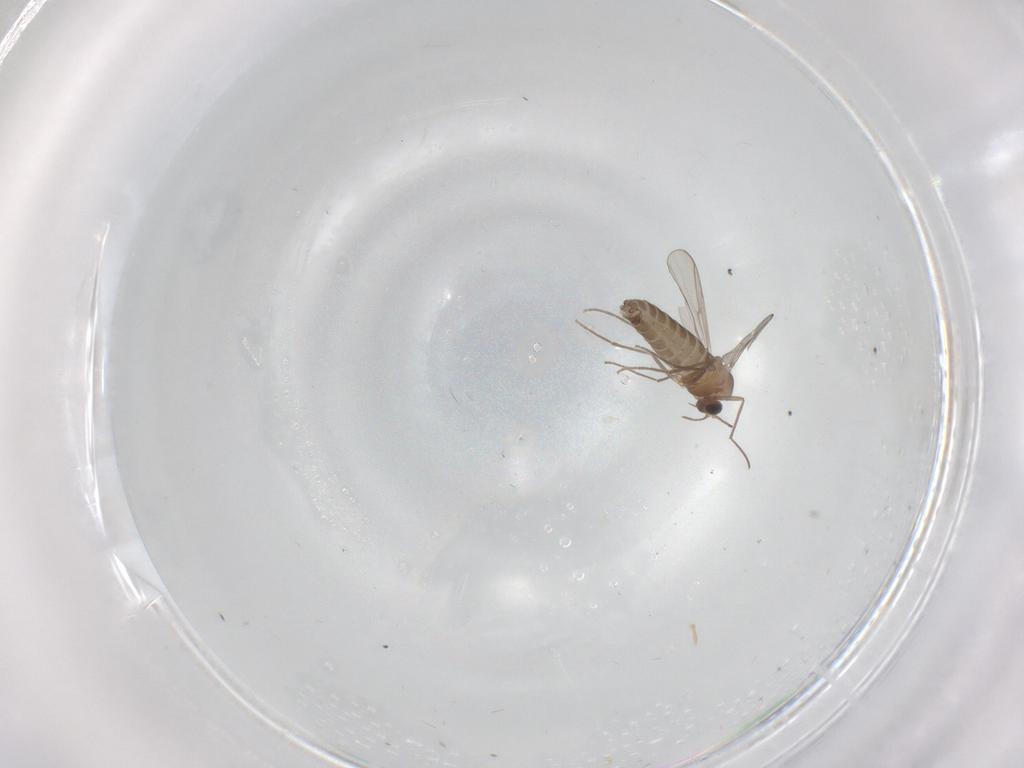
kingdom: Animalia
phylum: Arthropoda
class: Insecta
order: Diptera
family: Chironomidae
